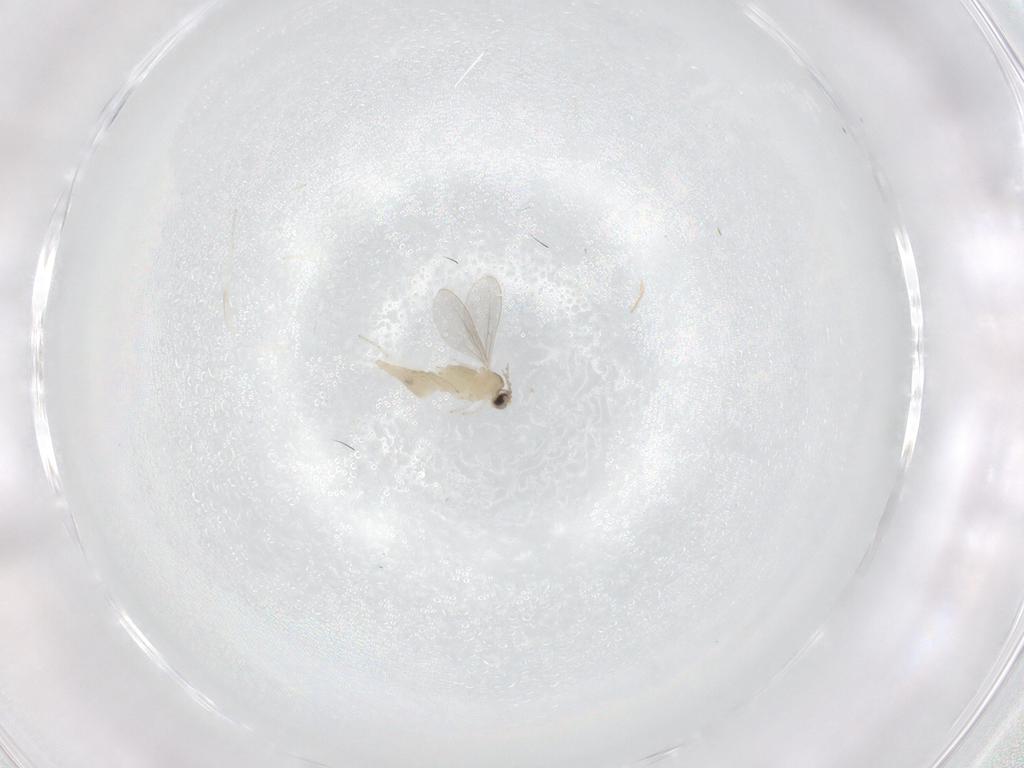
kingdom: Animalia
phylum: Arthropoda
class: Insecta
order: Diptera
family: Cecidomyiidae
